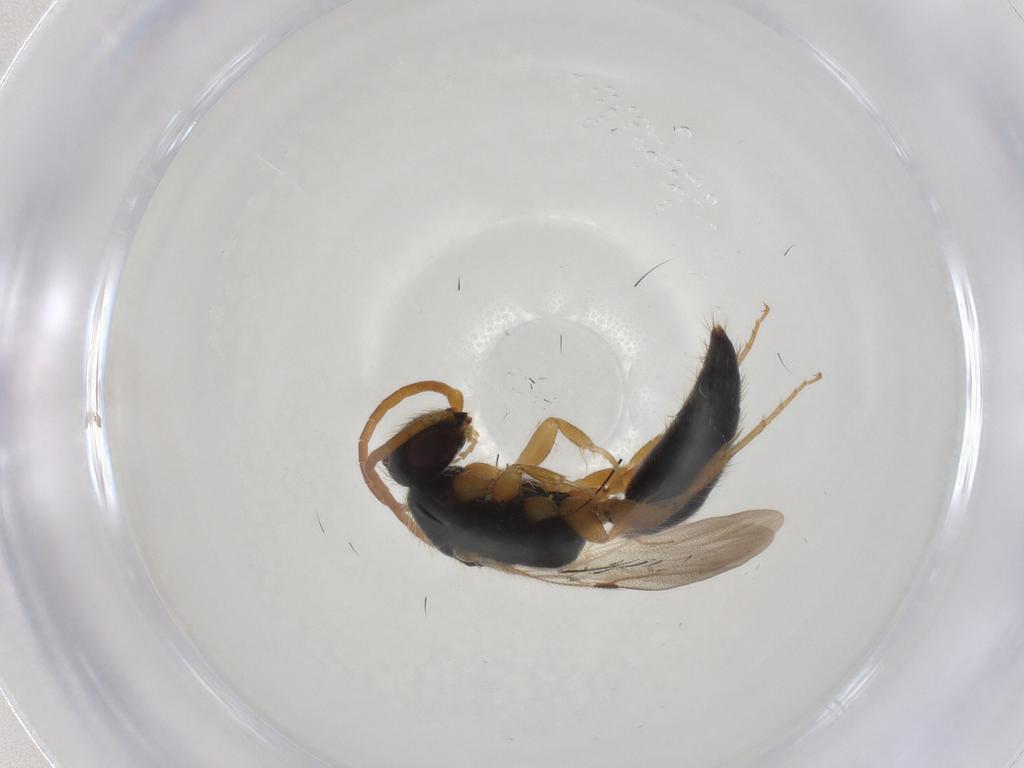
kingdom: Animalia
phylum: Arthropoda
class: Insecta
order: Hymenoptera
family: Bethylidae
